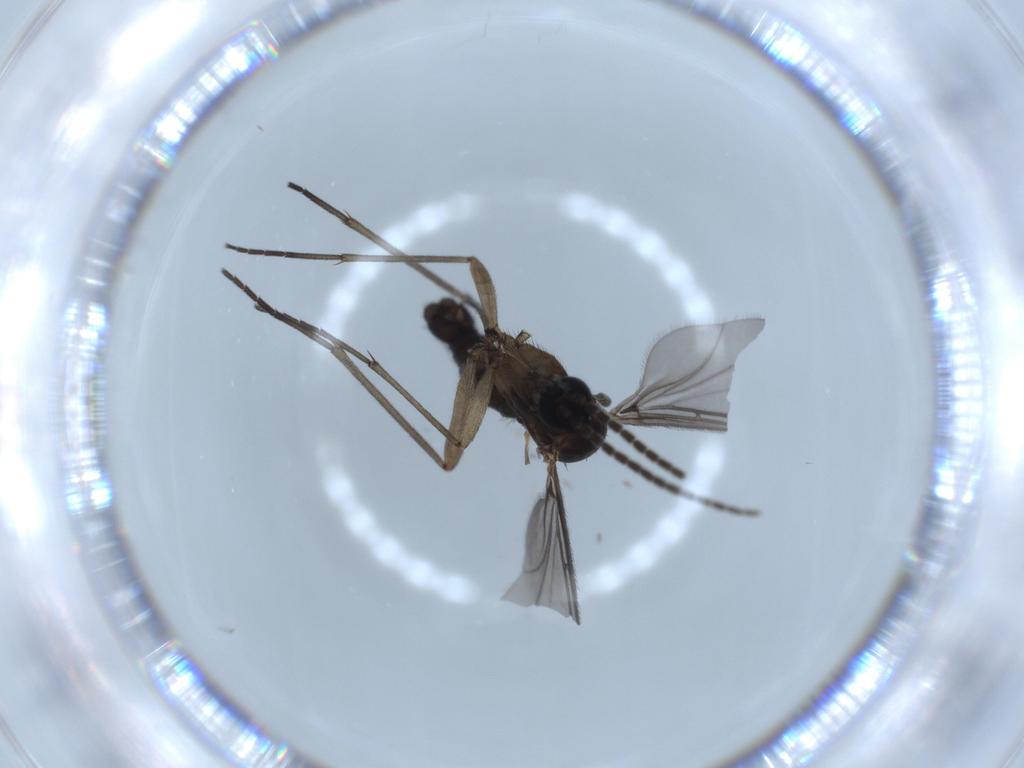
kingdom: Animalia
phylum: Arthropoda
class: Insecta
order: Diptera
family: Sciaridae
